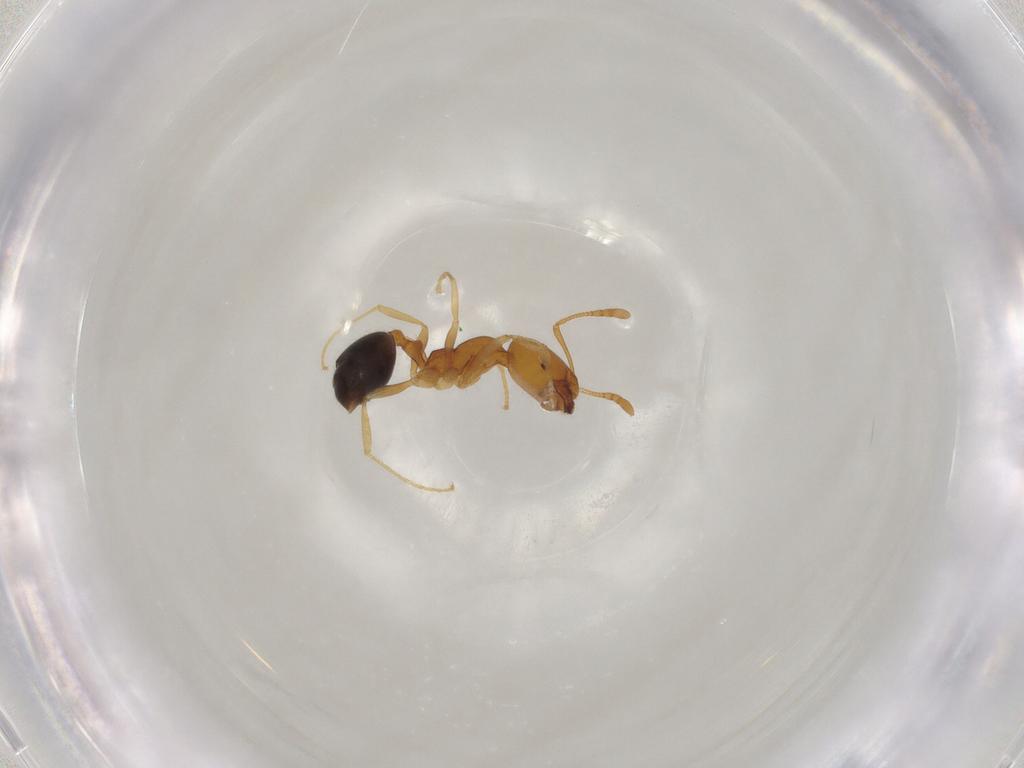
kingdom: Animalia
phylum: Arthropoda
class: Insecta
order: Hymenoptera
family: Formicidae
